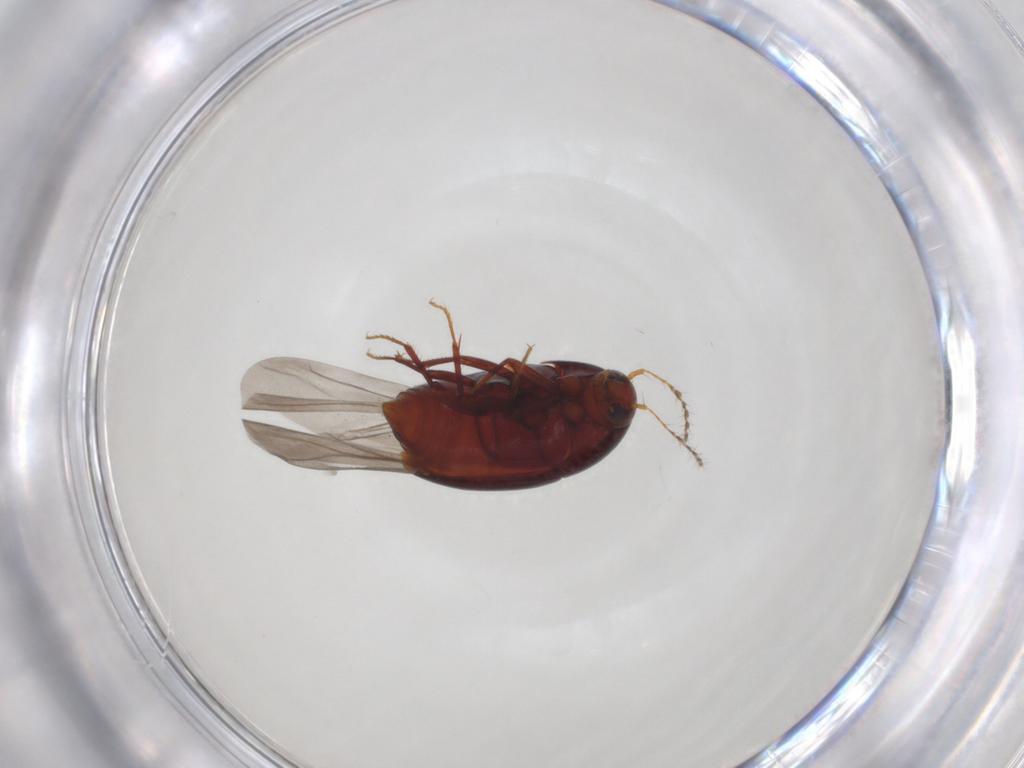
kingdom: Animalia
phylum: Arthropoda
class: Insecta
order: Coleoptera
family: Staphylinidae
